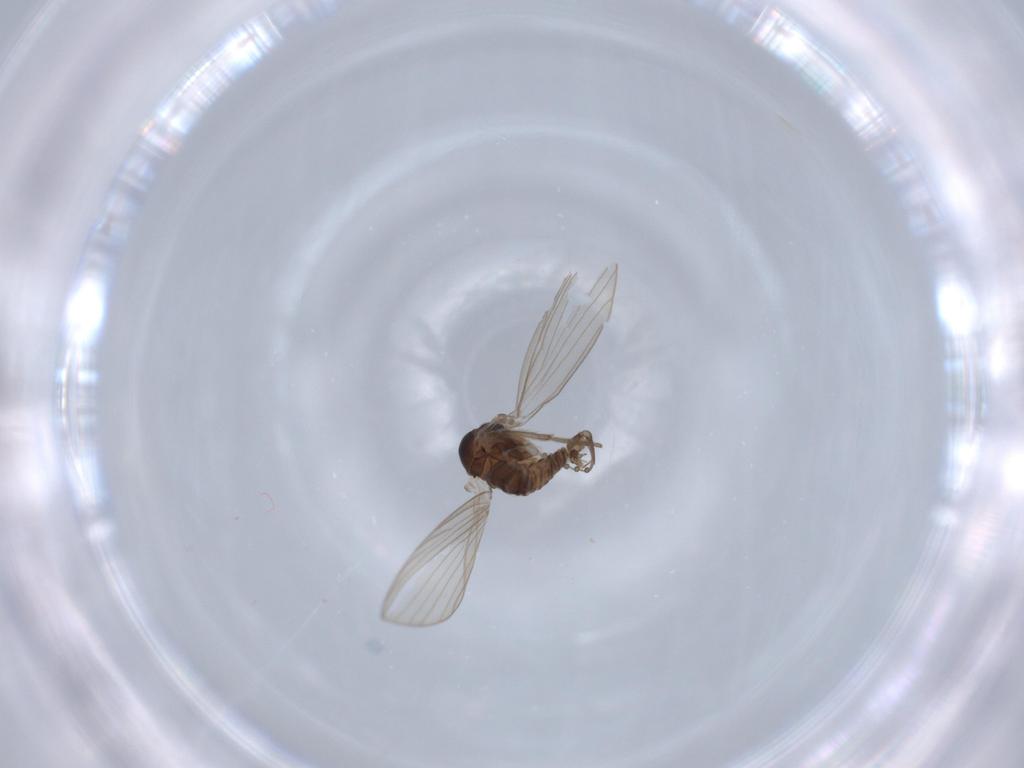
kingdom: Animalia
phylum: Arthropoda
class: Insecta
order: Diptera
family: Psychodidae
